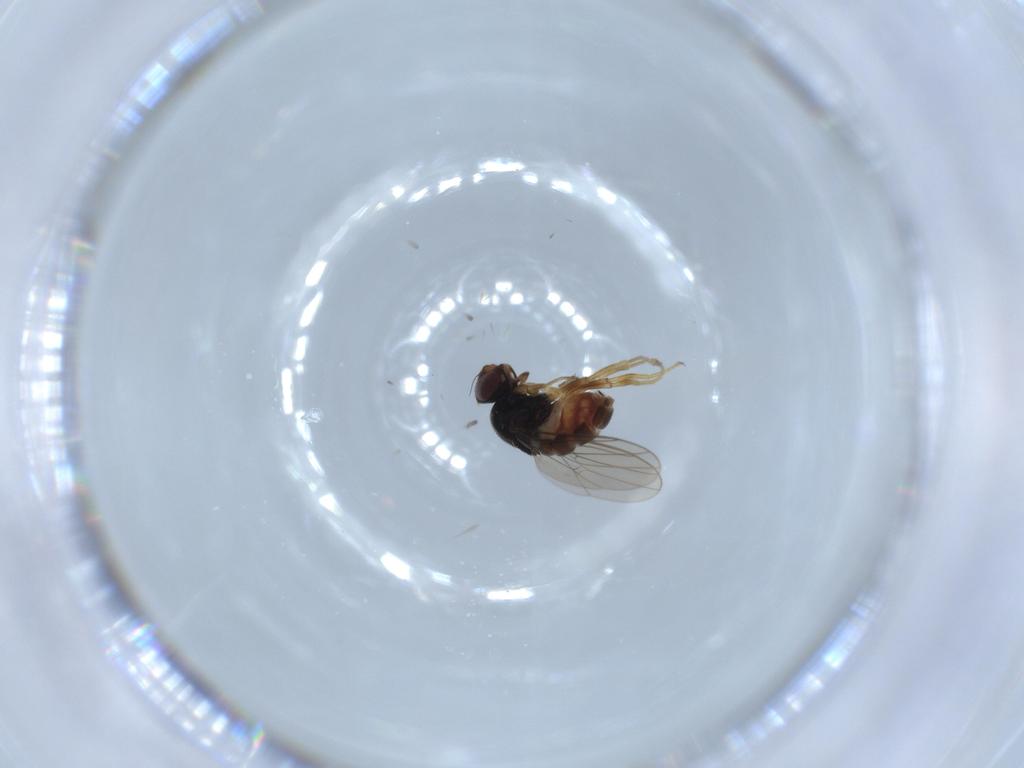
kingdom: Animalia
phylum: Arthropoda
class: Insecta
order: Diptera
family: Chloropidae
